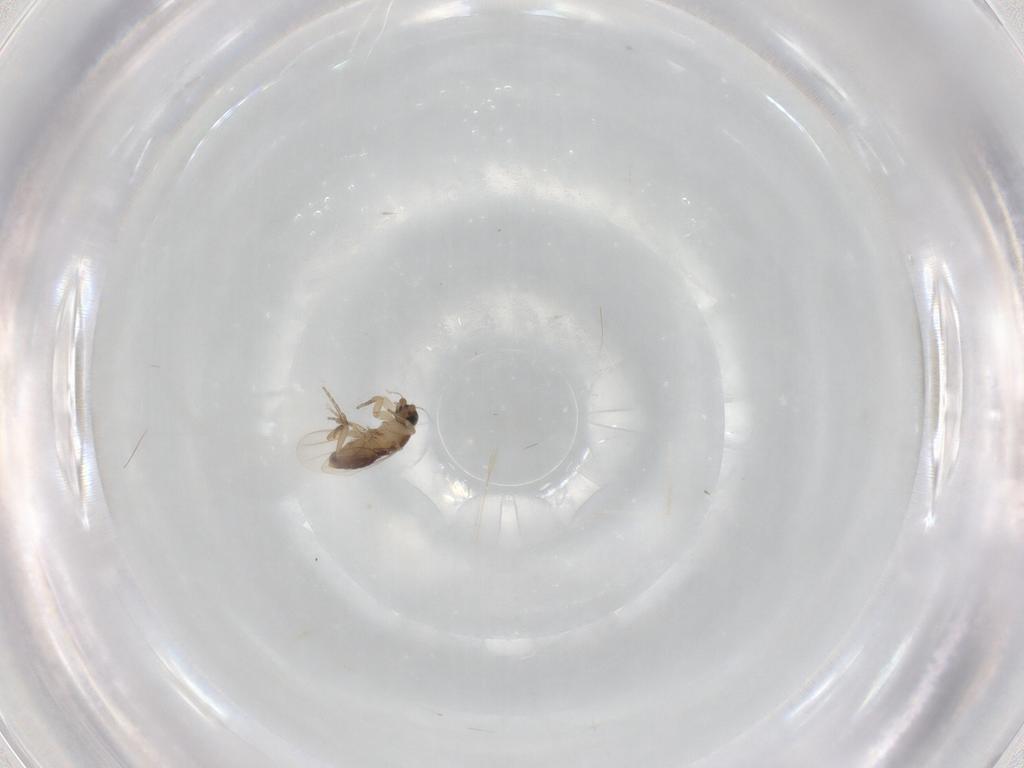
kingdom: Animalia
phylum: Arthropoda
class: Insecta
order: Diptera
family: Cecidomyiidae
